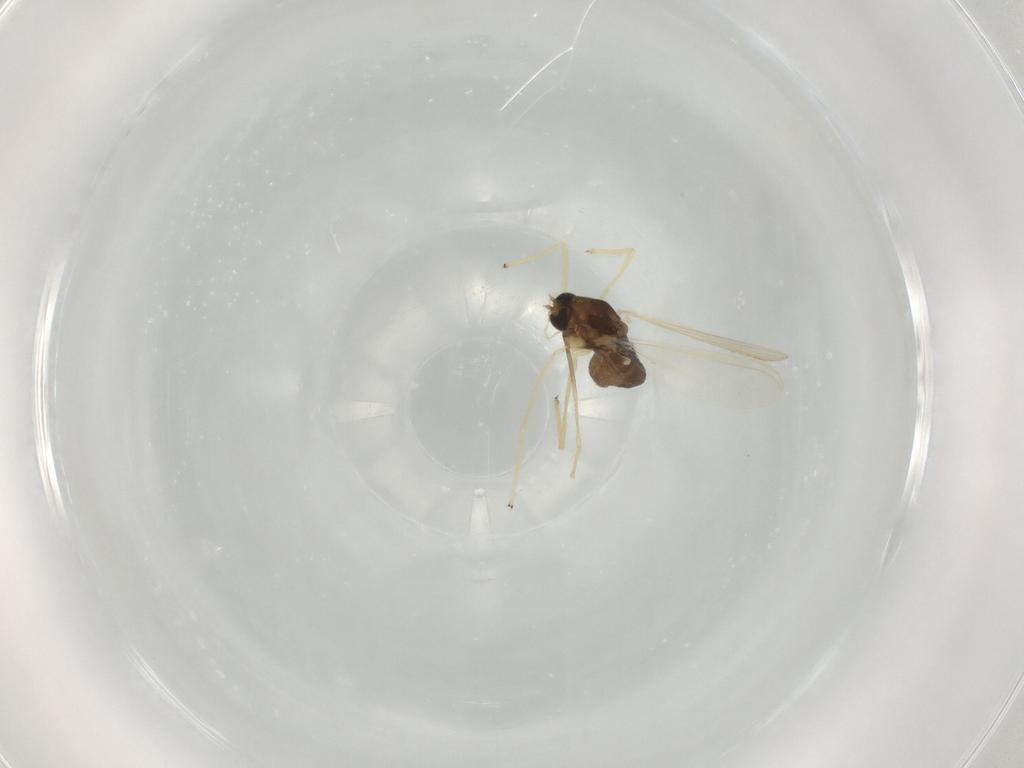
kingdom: Animalia
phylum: Arthropoda
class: Insecta
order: Diptera
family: Chironomidae
